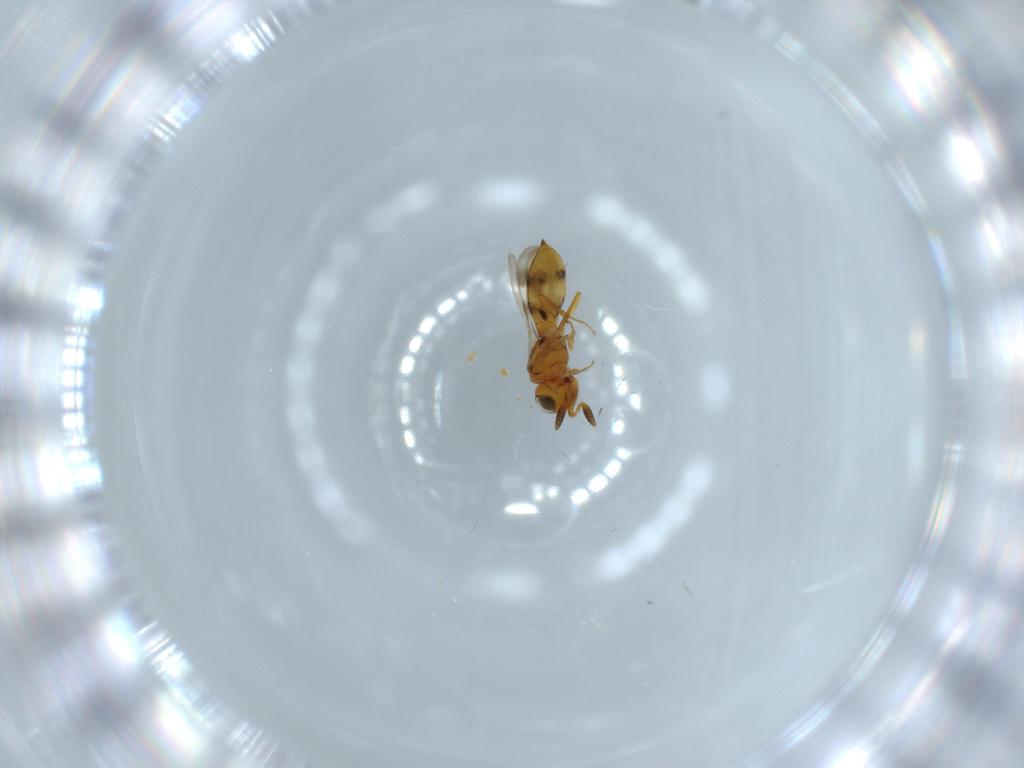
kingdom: Animalia
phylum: Arthropoda
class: Insecta
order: Hymenoptera
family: Scelionidae
